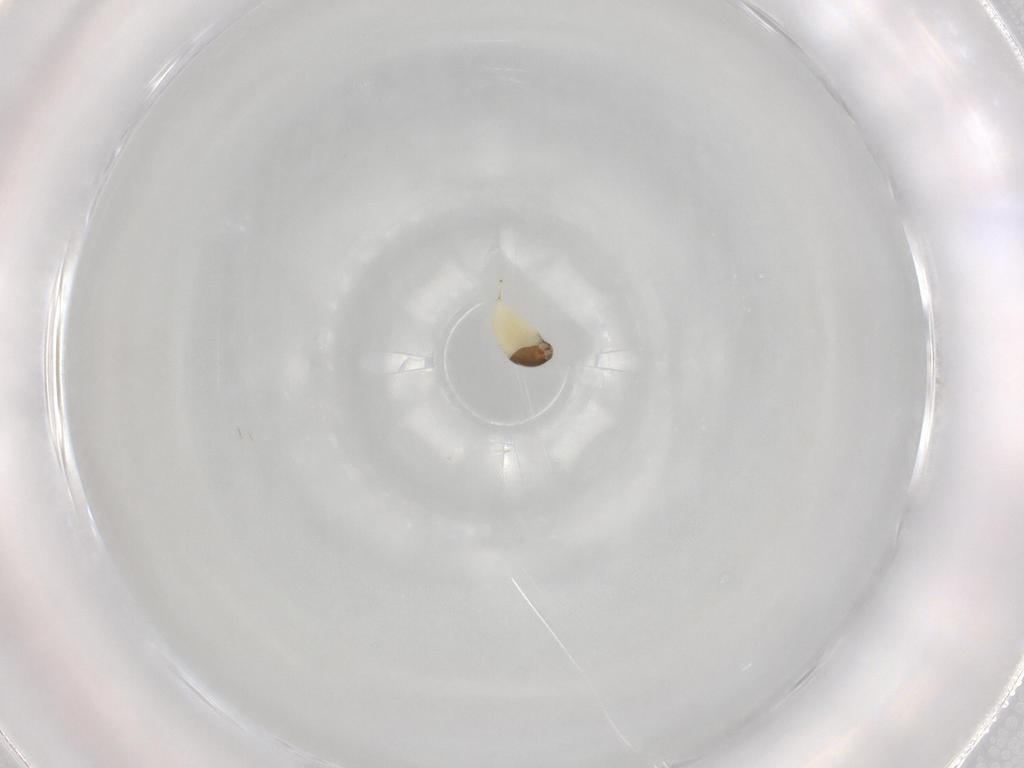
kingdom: Animalia
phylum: Arthropoda
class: Insecta
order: Hymenoptera
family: Ichneumonidae
